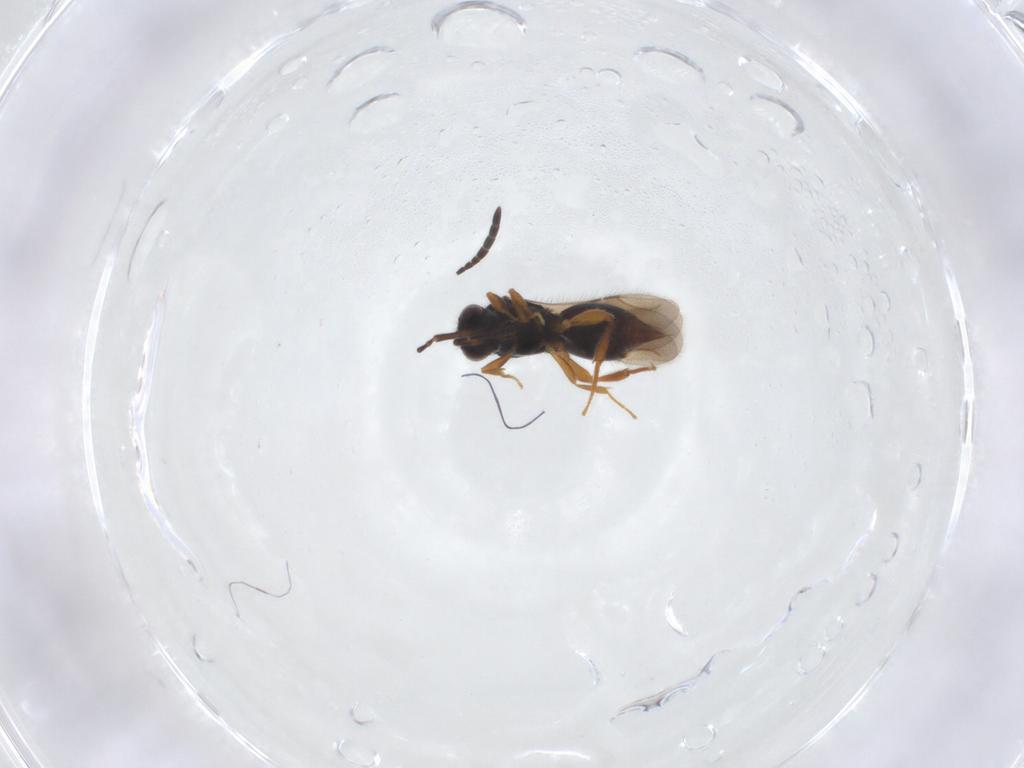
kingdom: Animalia
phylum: Arthropoda
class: Insecta
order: Hymenoptera
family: Ceraphronidae
